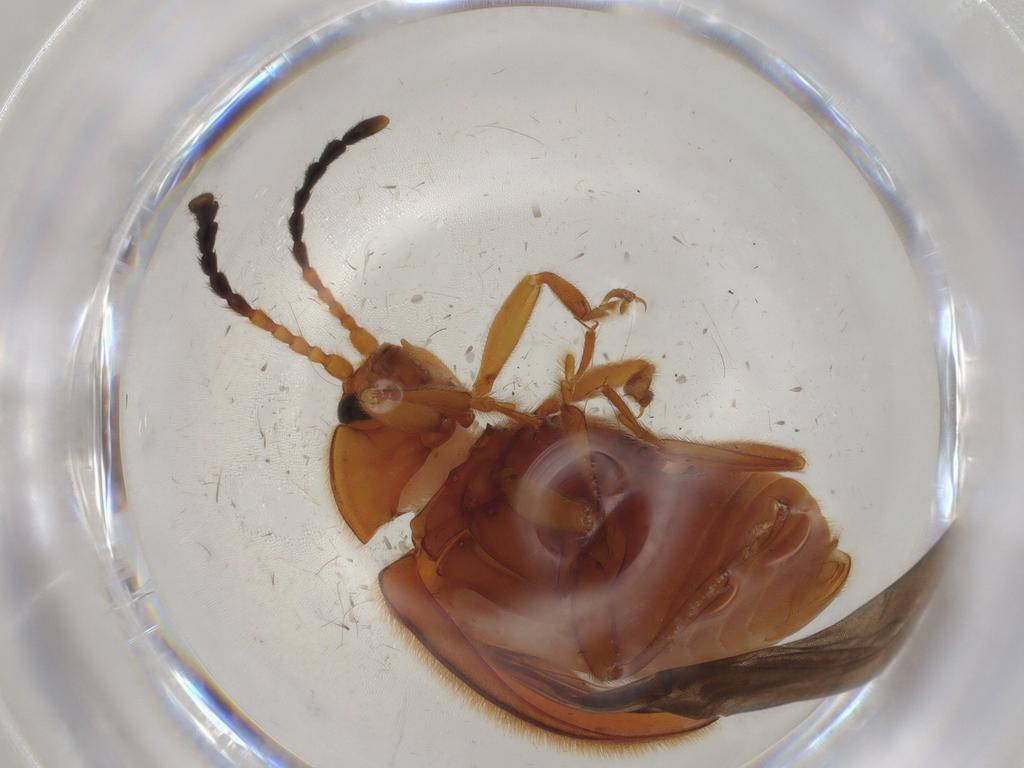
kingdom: Animalia
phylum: Arthropoda
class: Insecta
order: Coleoptera
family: Endomychidae
